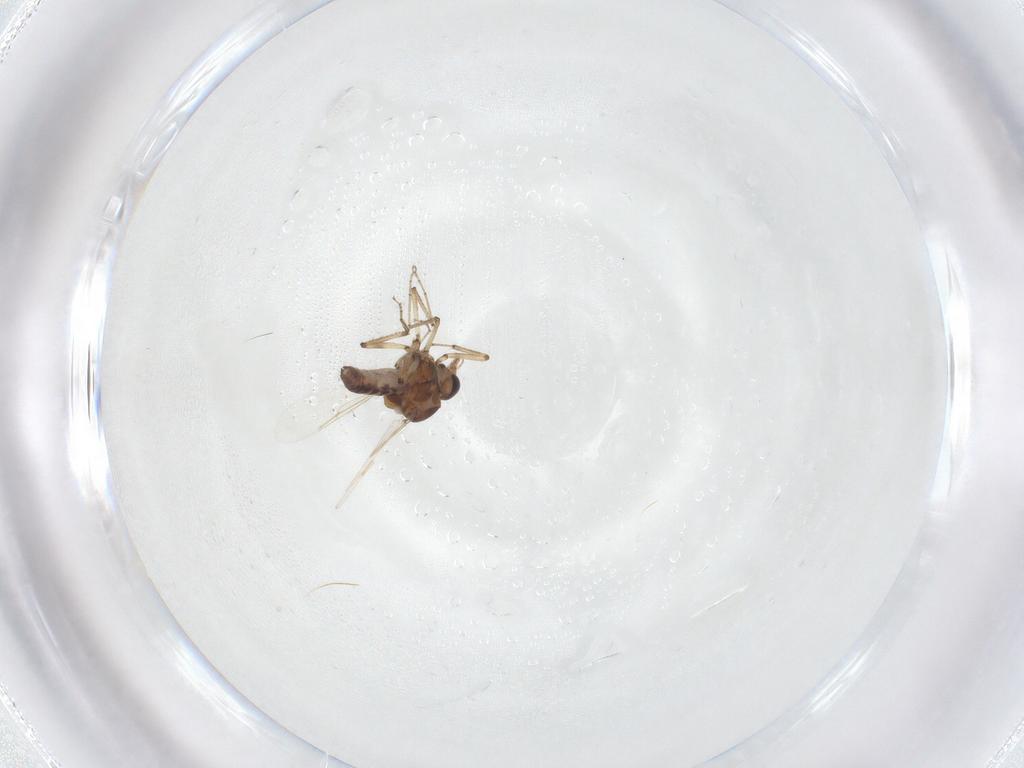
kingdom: Animalia
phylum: Arthropoda
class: Insecta
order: Diptera
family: Ceratopogonidae
